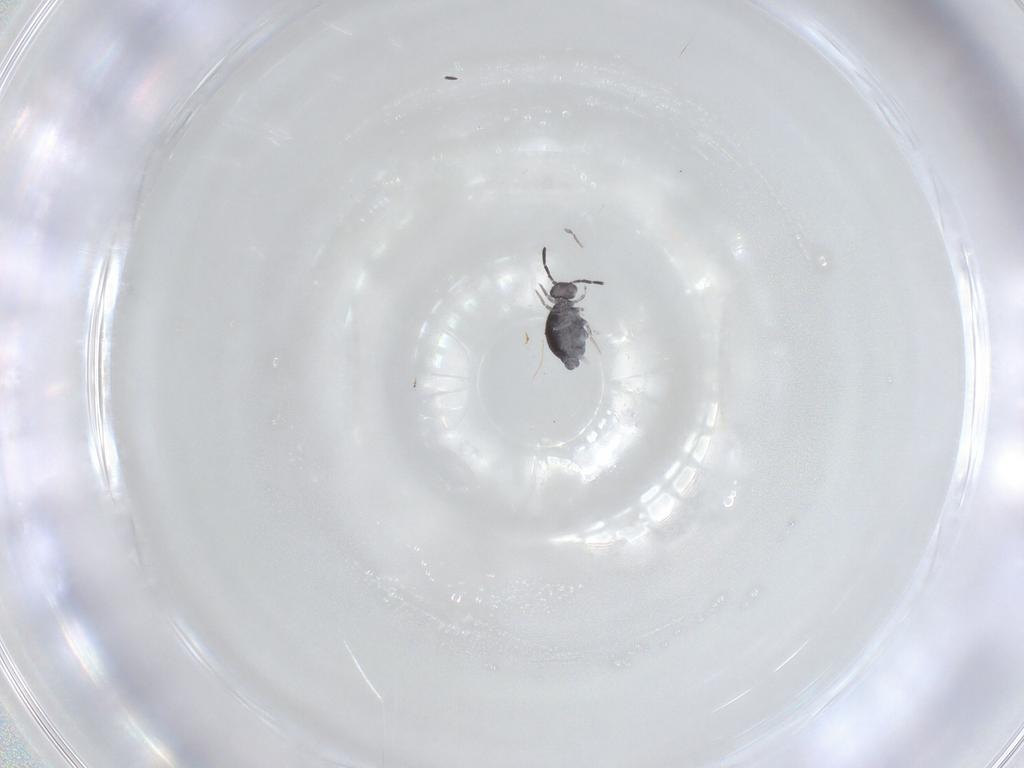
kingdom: Animalia
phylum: Arthropoda
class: Collembola
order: Symphypleona
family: Katiannidae
